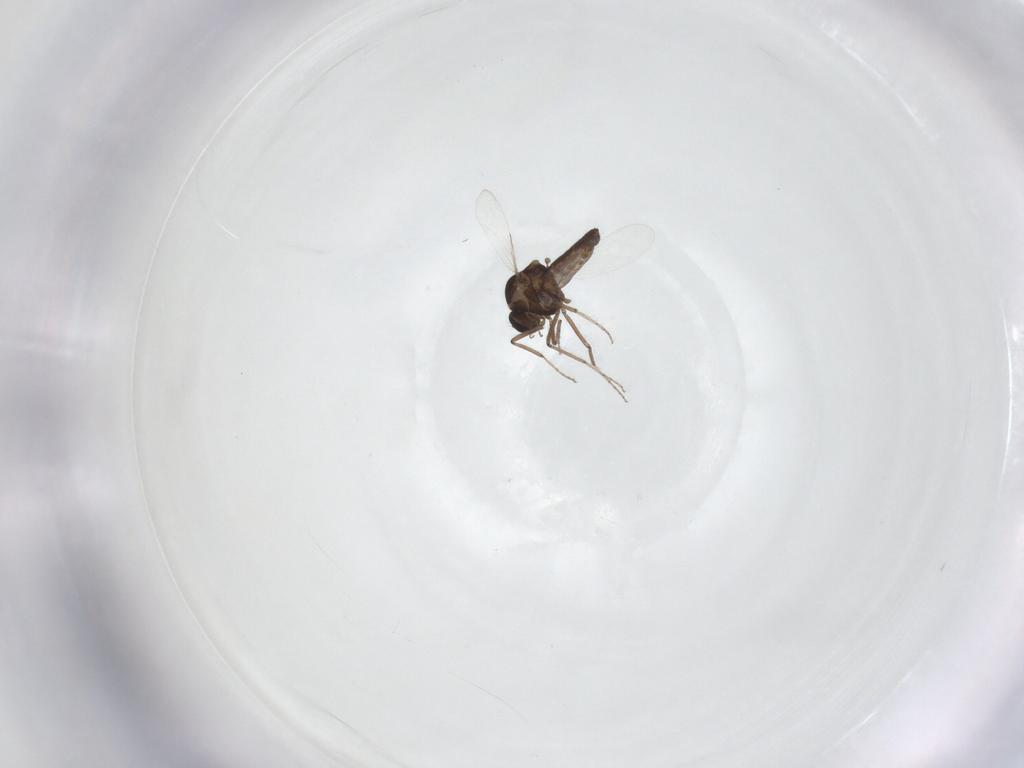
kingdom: Animalia
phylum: Arthropoda
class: Insecta
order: Diptera
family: Ceratopogonidae
